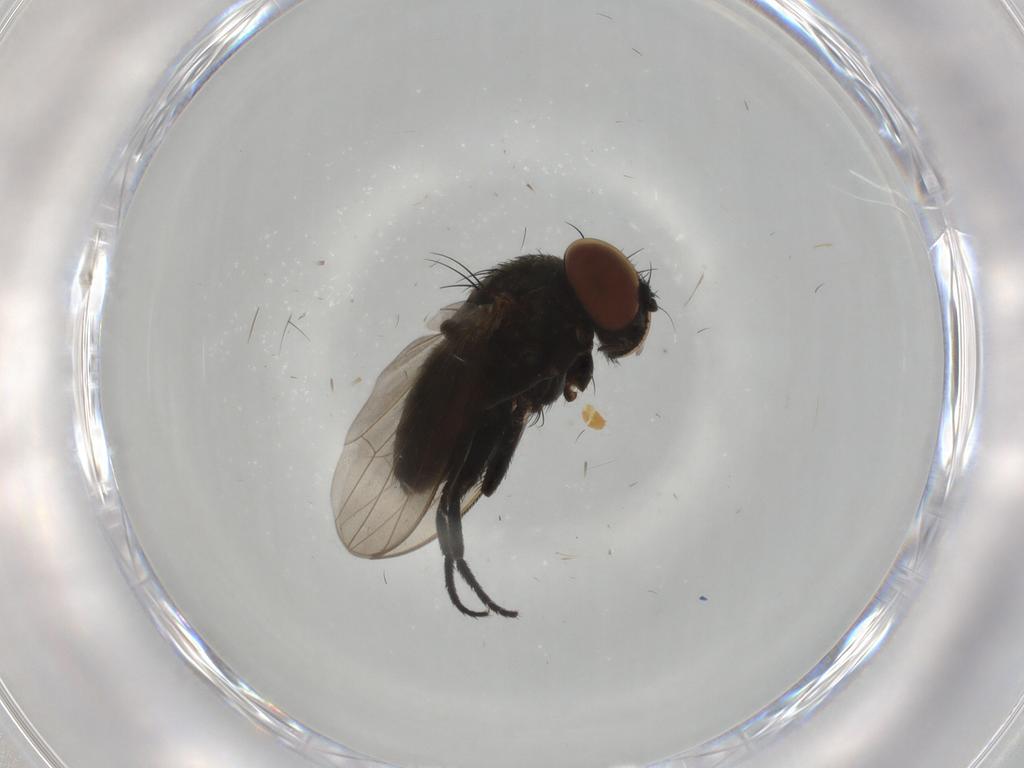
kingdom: Animalia
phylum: Arthropoda
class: Insecta
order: Diptera
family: Milichiidae
